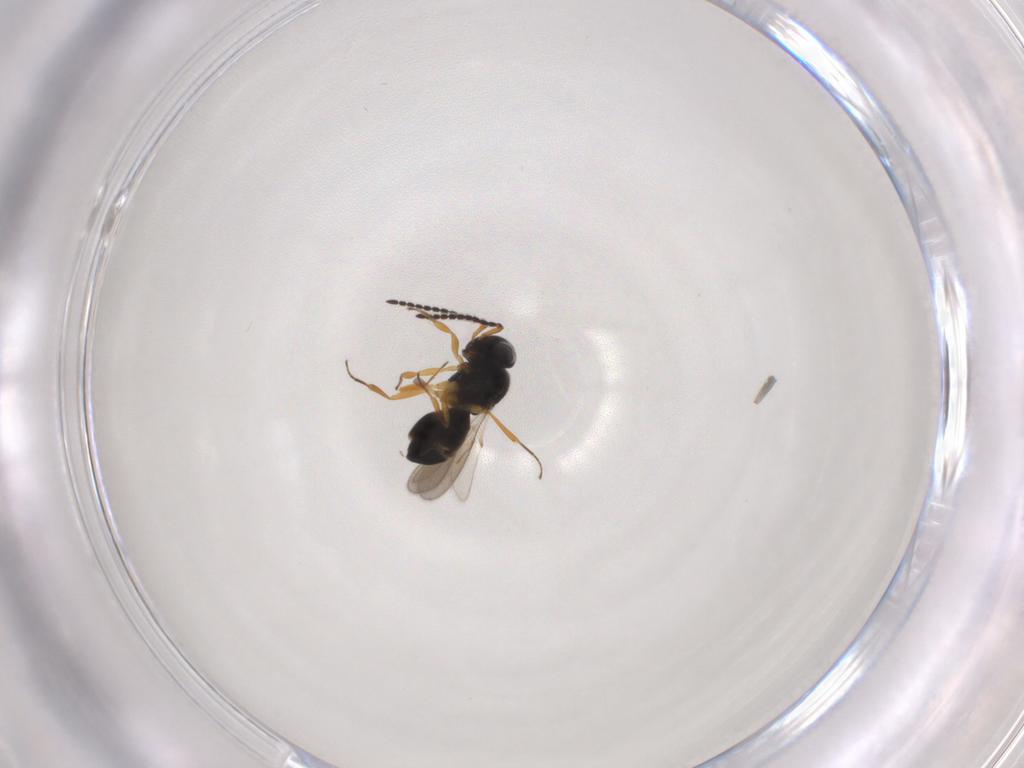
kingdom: Animalia
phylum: Arthropoda
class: Insecta
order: Hymenoptera
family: Scelionidae
